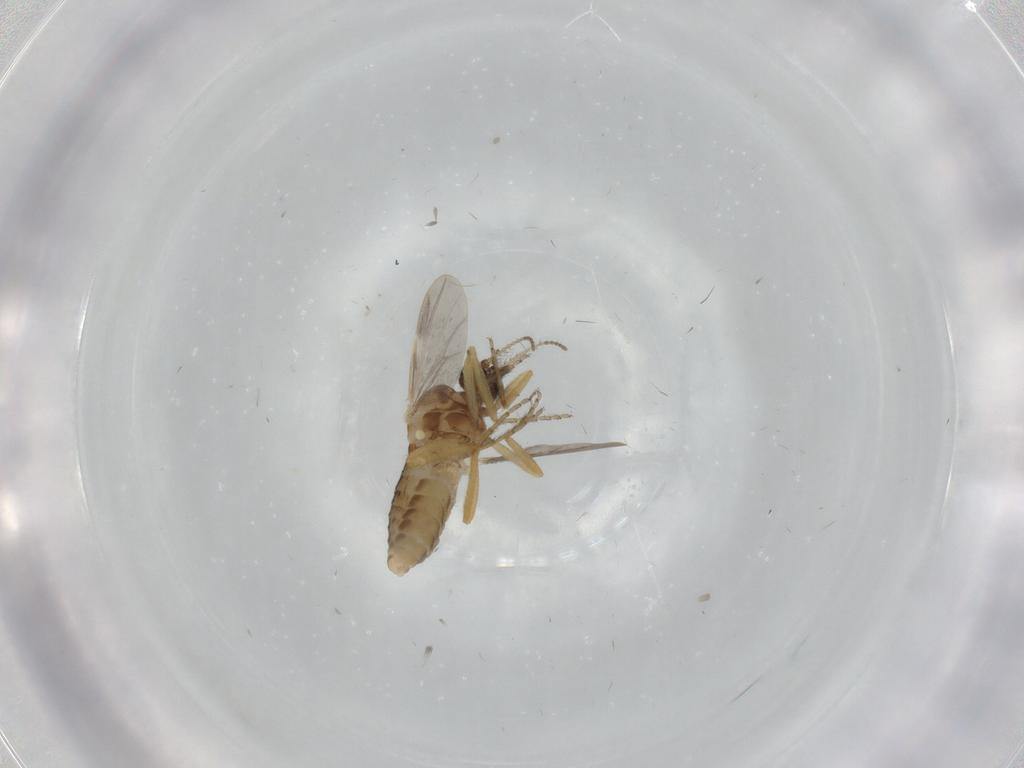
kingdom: Animalia
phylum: Arthropoda
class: Insecta
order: Diptera
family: Ceratopogonidae
